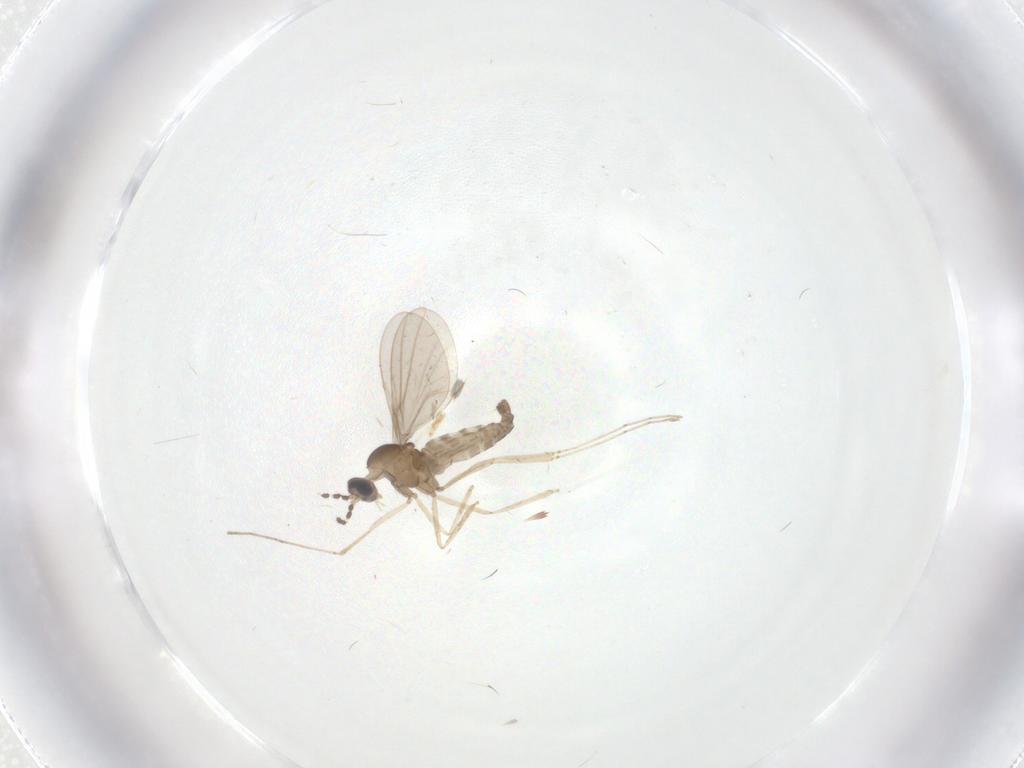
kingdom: Animalia
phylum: Arthropoda
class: Insecta
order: Diptera
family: Cecidomyiidae
